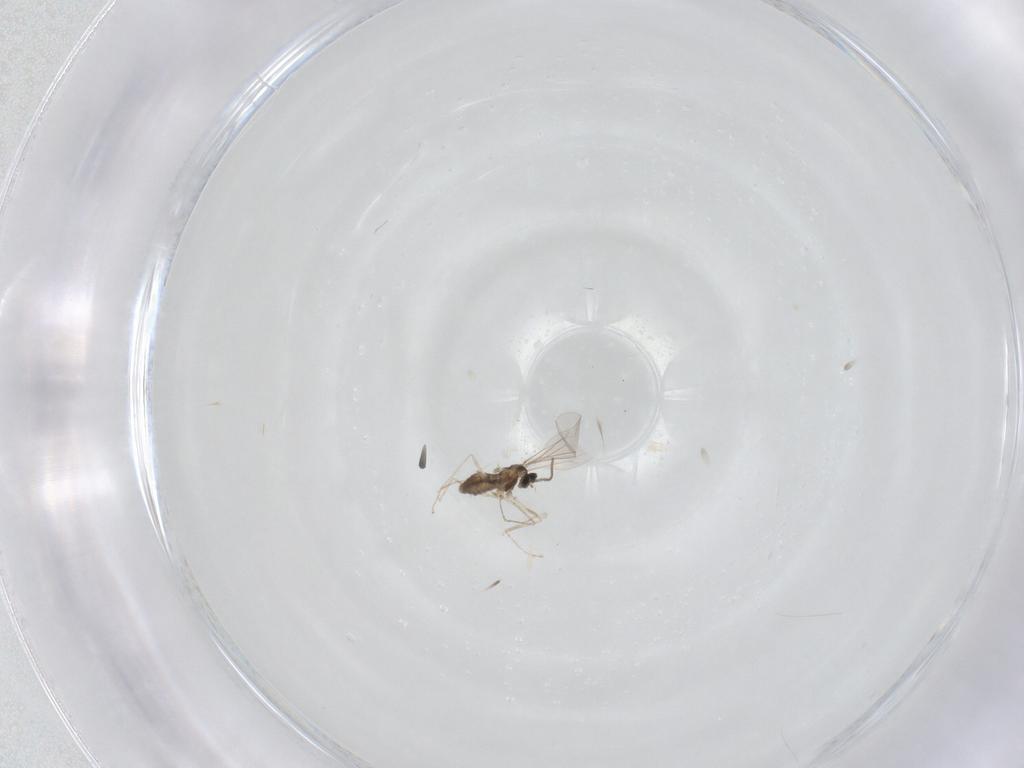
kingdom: Animalia
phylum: Arthropoda
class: Insecta
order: Diptera
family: Cecidomyiidae
